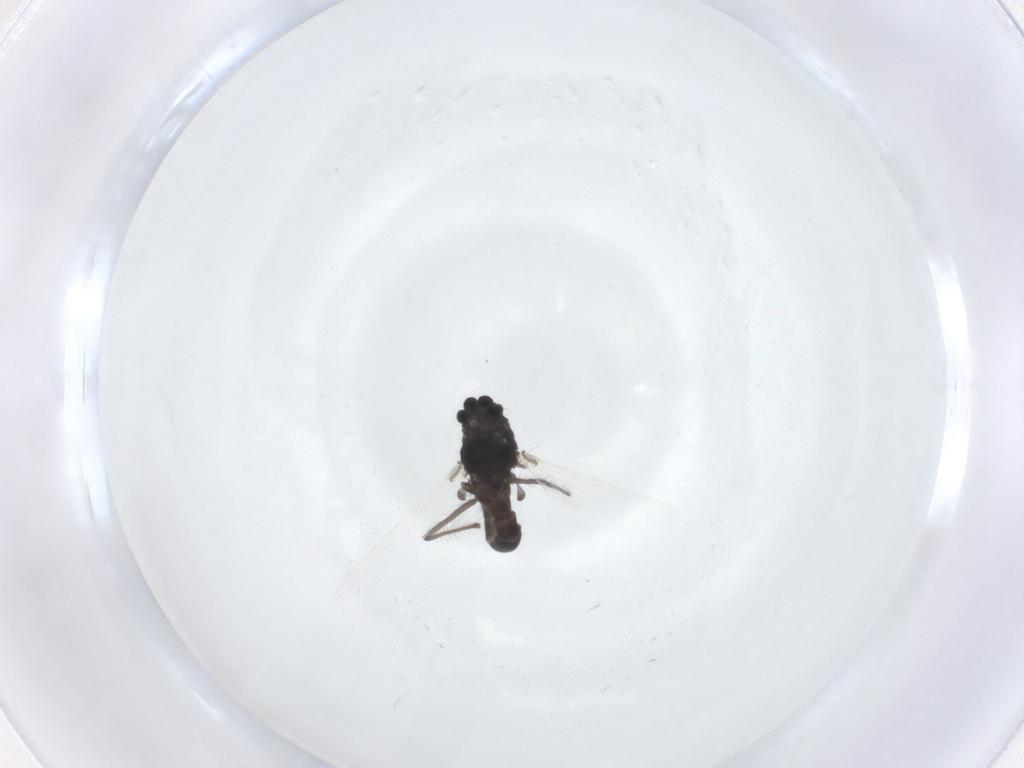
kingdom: Animalia
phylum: Arthropoda
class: Insecta
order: Diptera
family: Chironomidae
